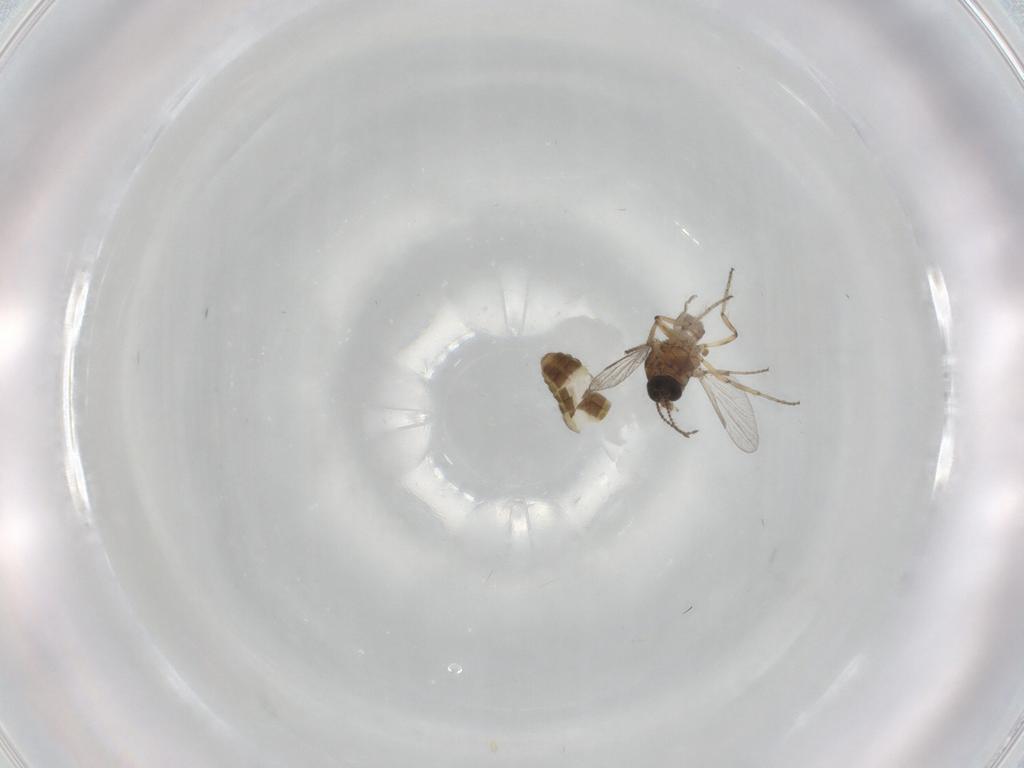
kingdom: Animalia
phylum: Arthropoda
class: Insecta
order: Diptera
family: Ceratopogonidae
